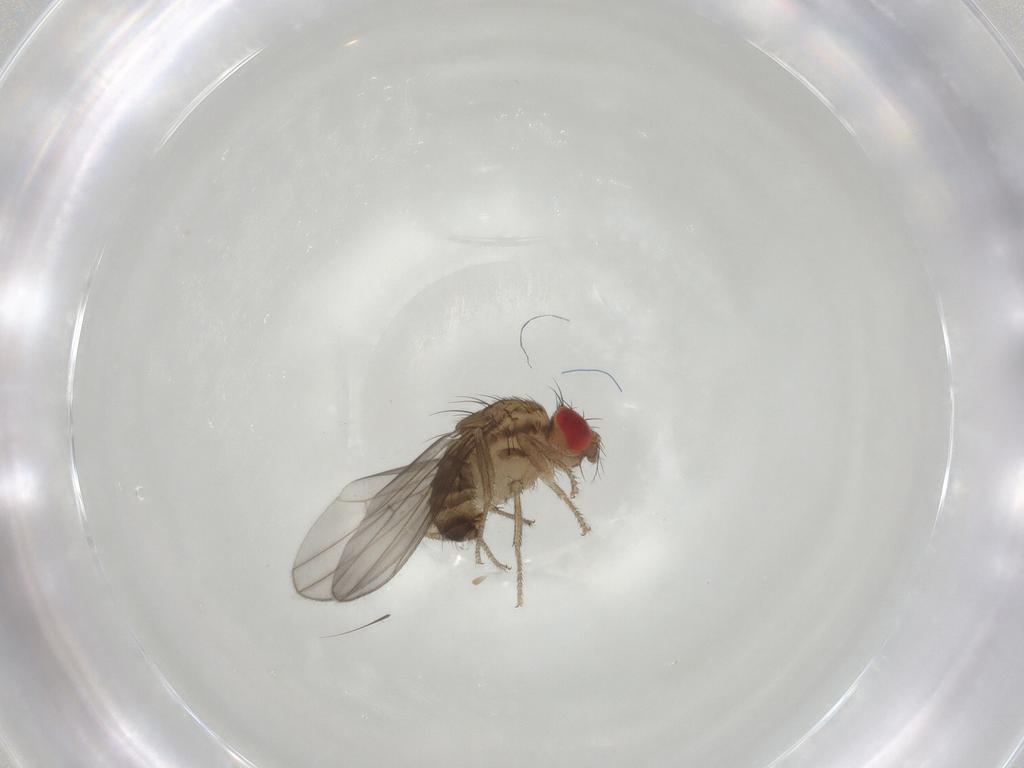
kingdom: Animalia
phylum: Arthropoda
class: Insecta
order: Diptera
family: Drosophilidae
